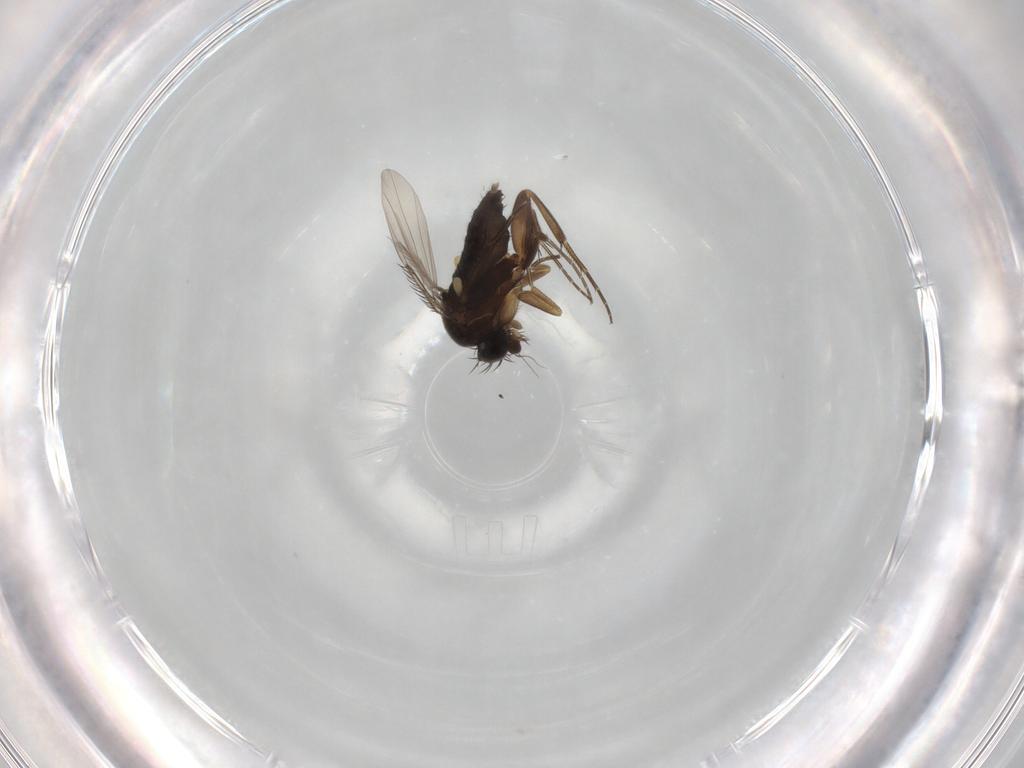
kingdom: Animalia
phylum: Arthropoda
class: Insecta
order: Diptera
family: Phoridae
